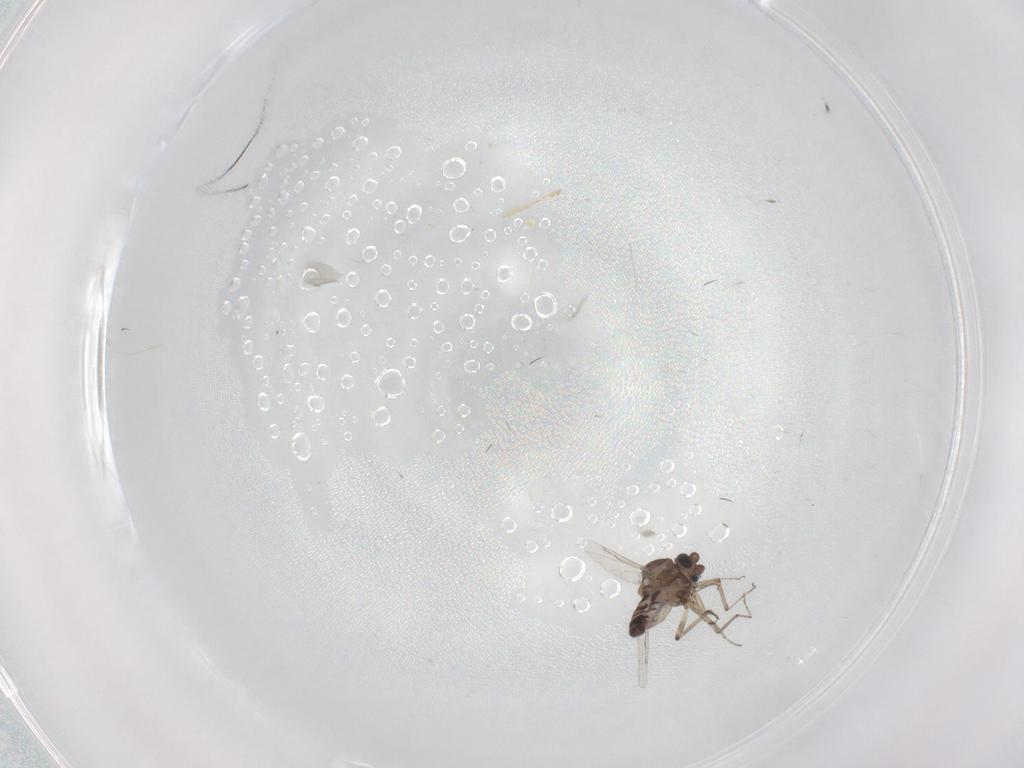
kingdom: Animalia
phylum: Arthropoda
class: Insecta
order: Diptera
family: Ceratopogonidae
